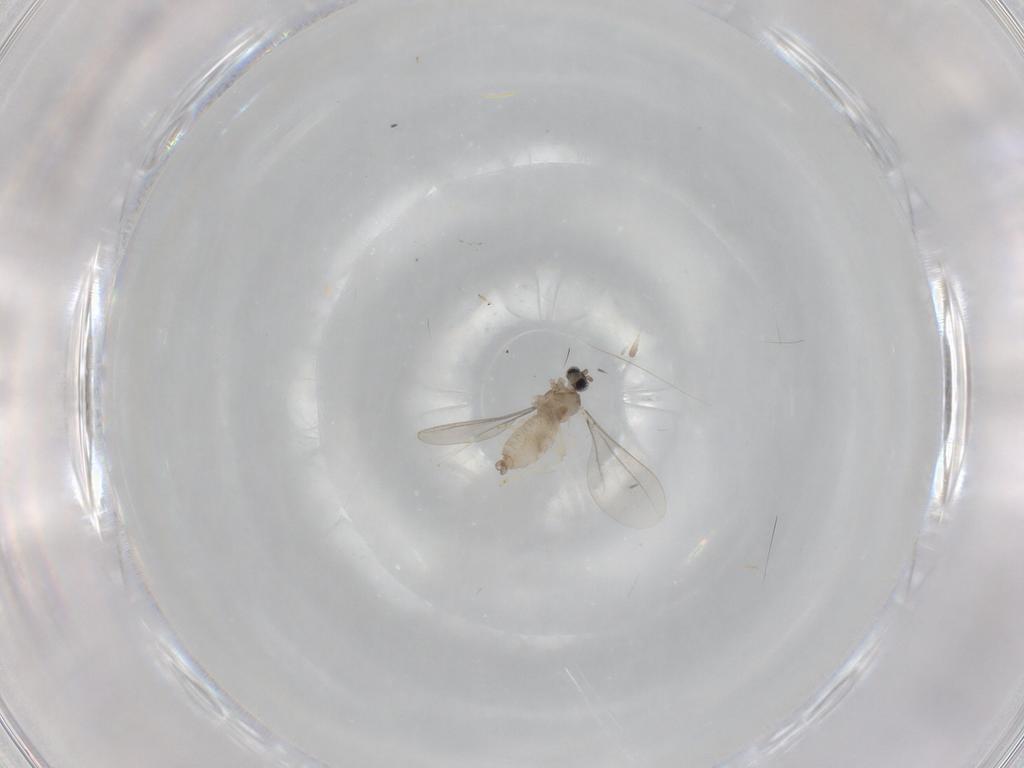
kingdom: Animalia
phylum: Arthropoda
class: Insecta
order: Diptera
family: Cecidomyiidae
